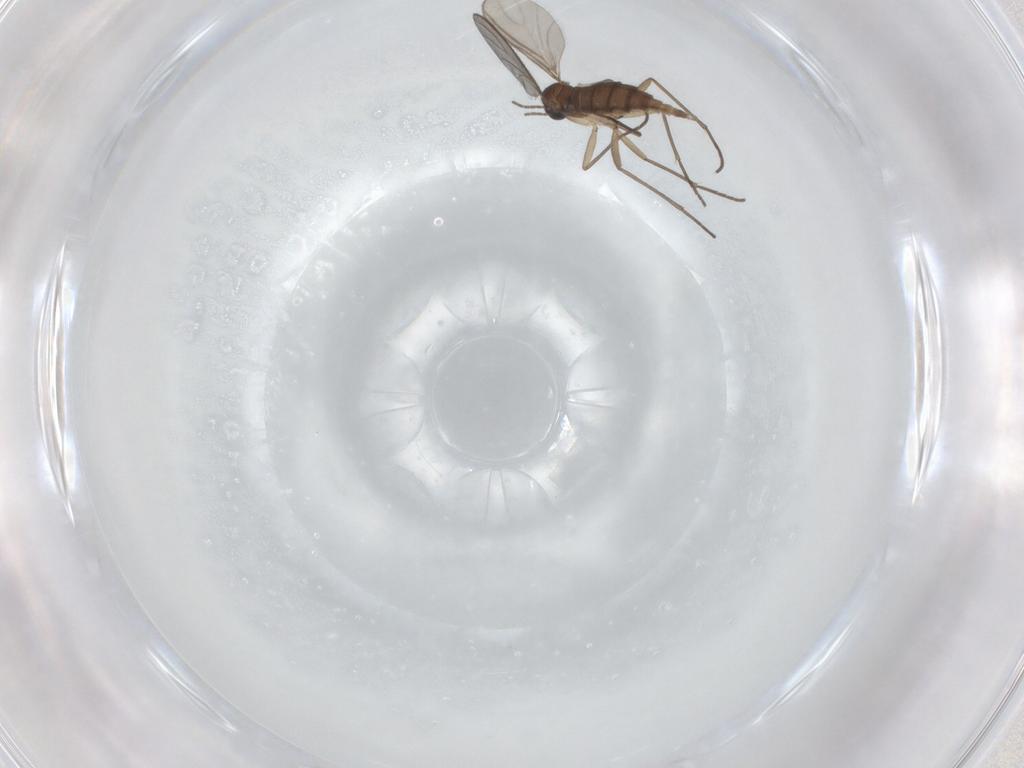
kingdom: Animalia
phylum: Arthropoda
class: Insecta
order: Diptera
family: Sciaridae
